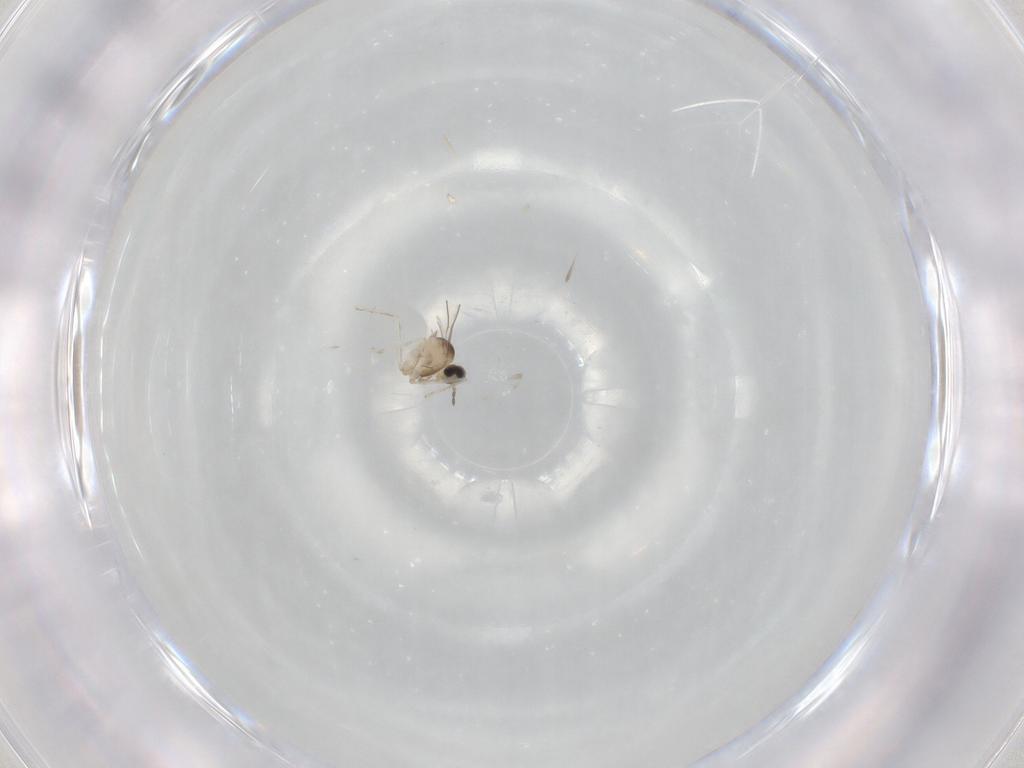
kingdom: Animalia
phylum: Arthropoda
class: Insecta
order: Diptera
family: Cecidomyiidae
